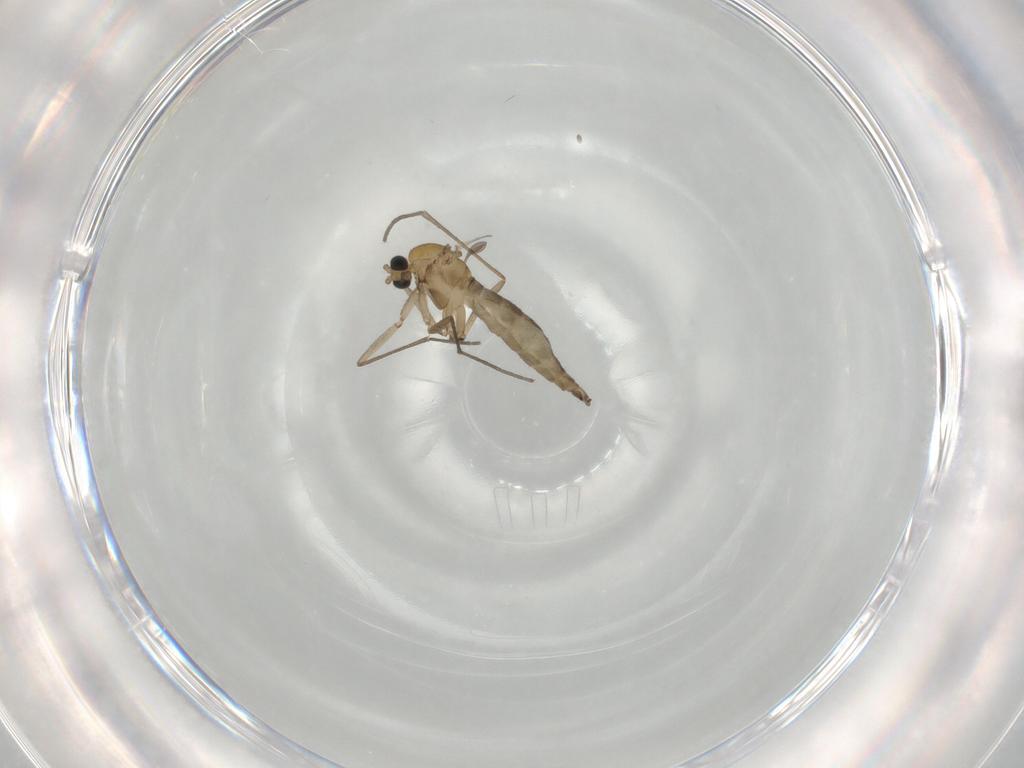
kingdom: Animalia
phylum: Arthropoda
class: Insecta
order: Diptera
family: Sciaridae
